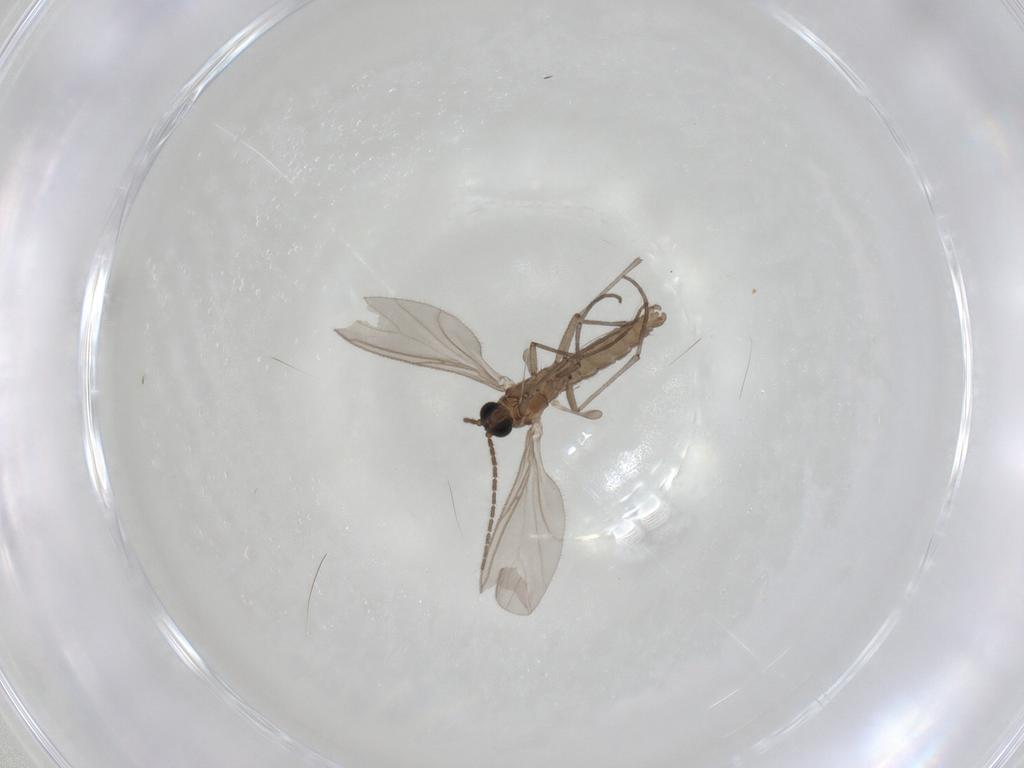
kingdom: Animalia
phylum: Arthropoda
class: Insecta
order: Diptera
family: Sciaridae
